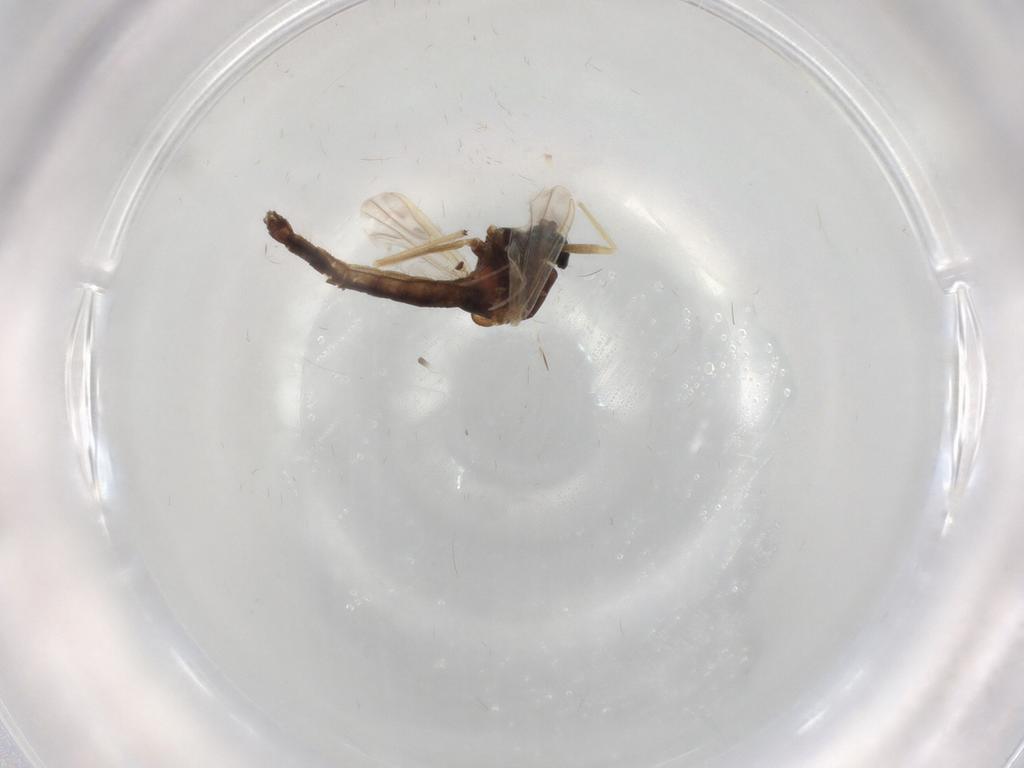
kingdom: Animalia
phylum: Arthropoda
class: Insecta
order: Diptera
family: Chironomidae
